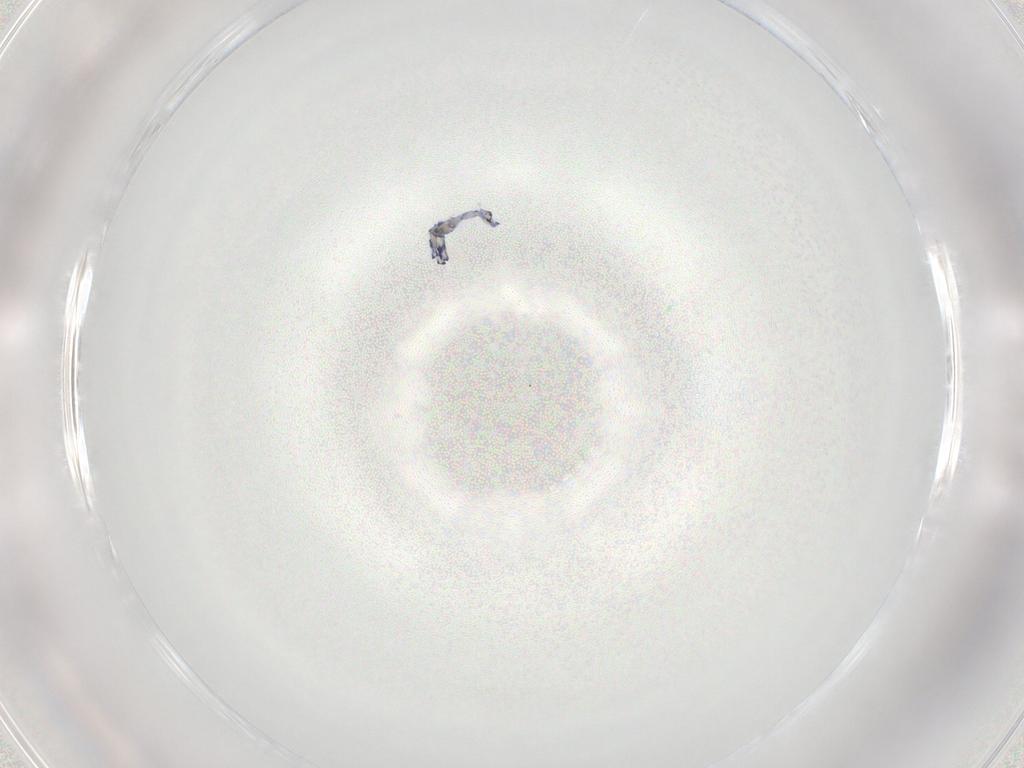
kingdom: Animalia
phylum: Arthropoda
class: Collembola
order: Entomobryomorpha
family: Entomobryidae
